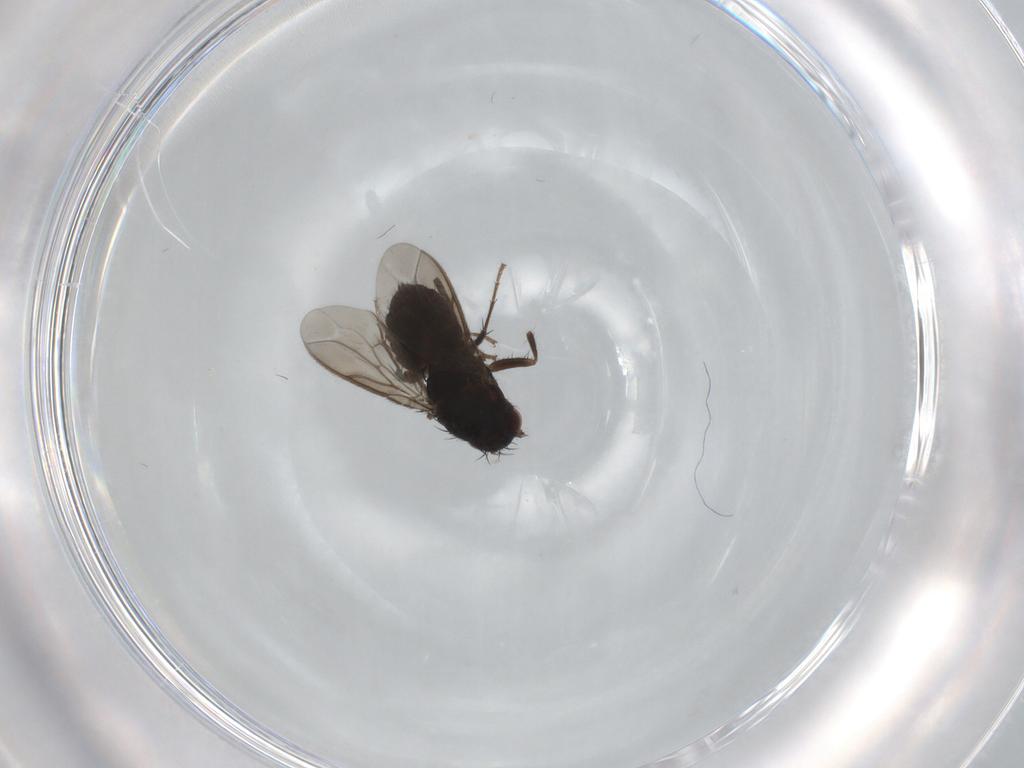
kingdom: Animalia
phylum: Arthropoda
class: Insecta
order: Diptera
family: Sphaeroceridae
